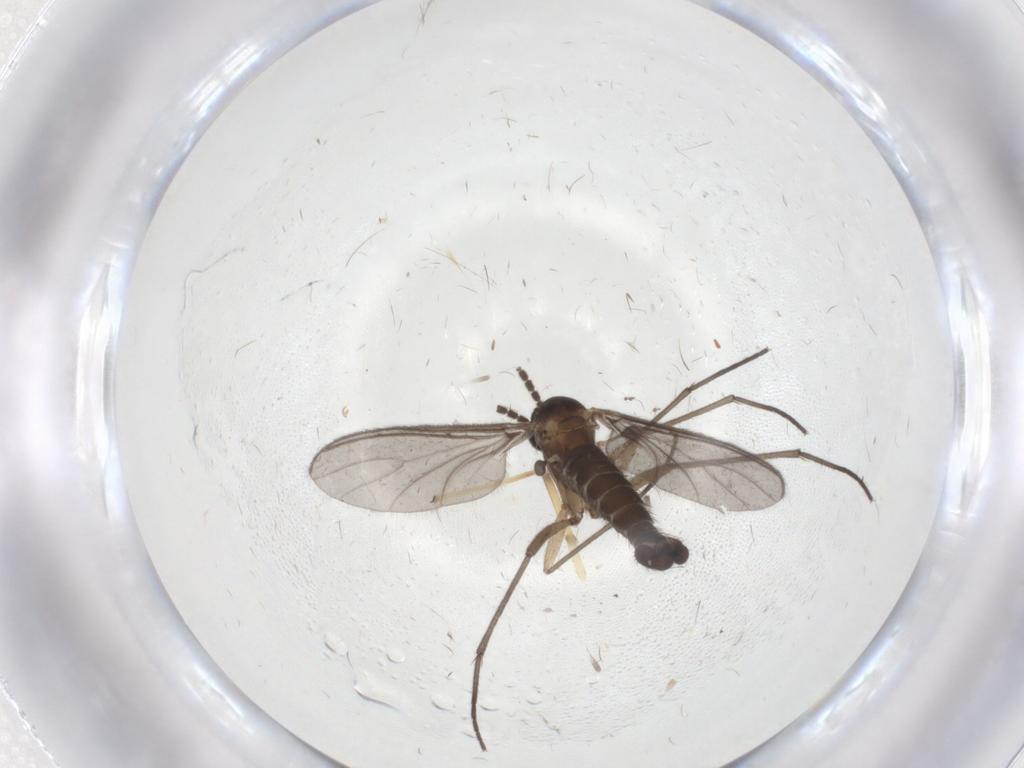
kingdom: Animalia
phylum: Arthropoda
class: Insecta
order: Diptera
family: Sciaridae
